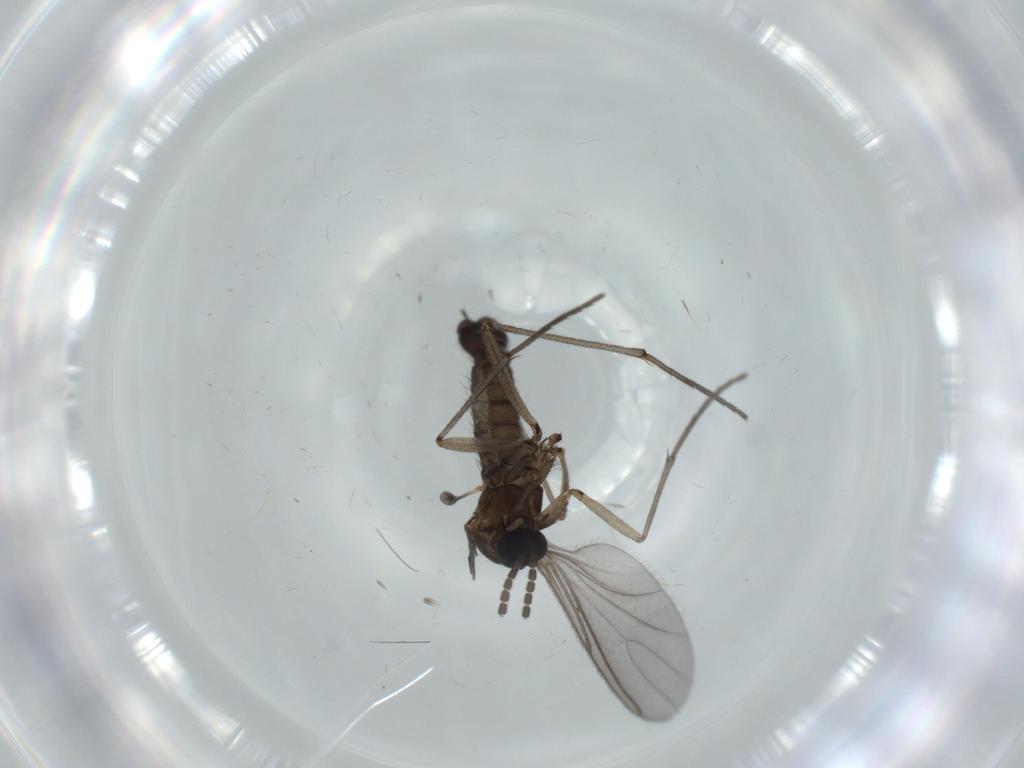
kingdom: Animalia
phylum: Arthropoda
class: Insecta
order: Diptera
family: Sciaridae
